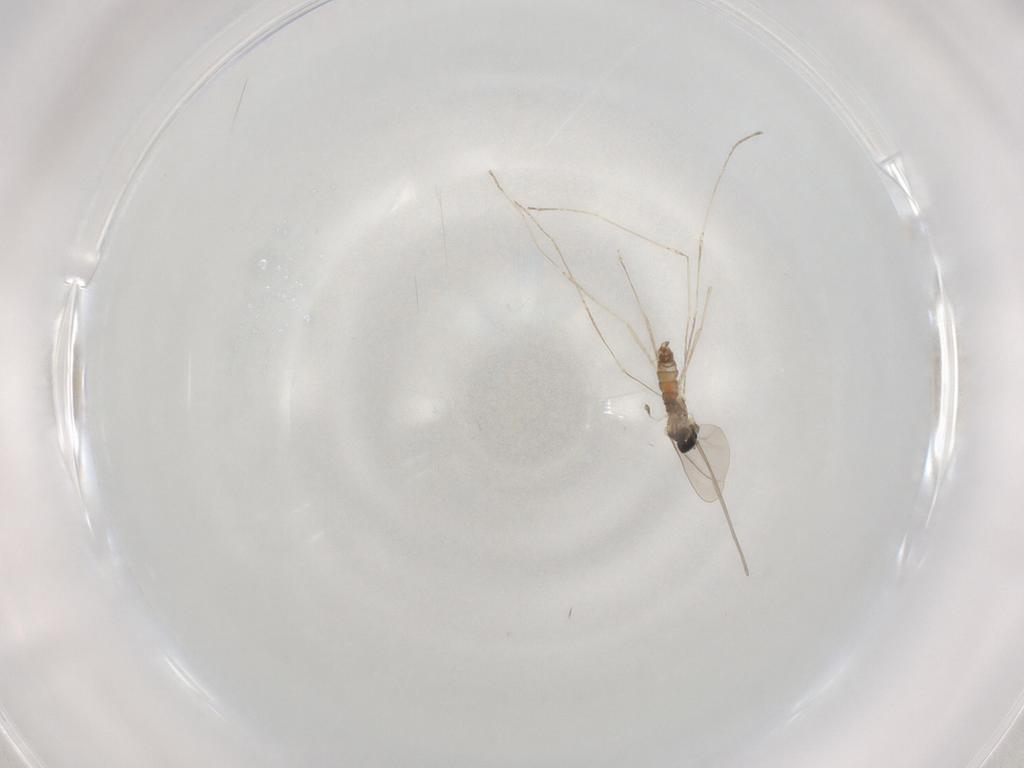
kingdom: Animalia
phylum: Arthropoda
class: Insecta
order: Diptera
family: Cecidomyiidae
